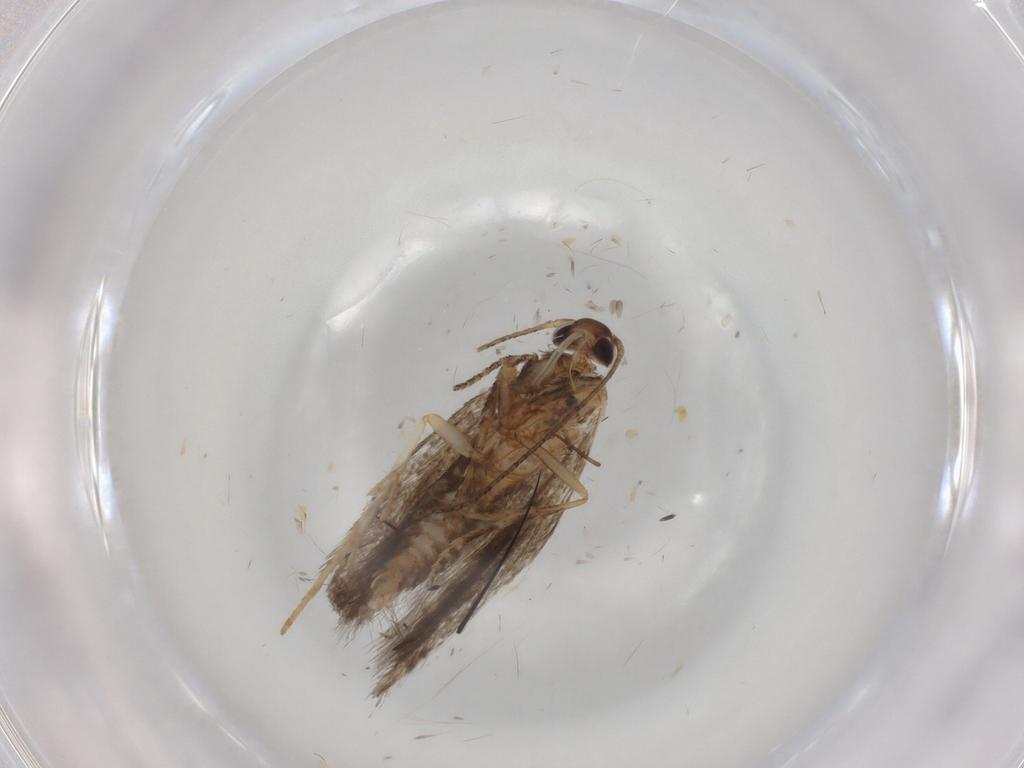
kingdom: Animalia
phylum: Arthropoda
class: Insecta
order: Lepidoptera
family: Gelechiidae
